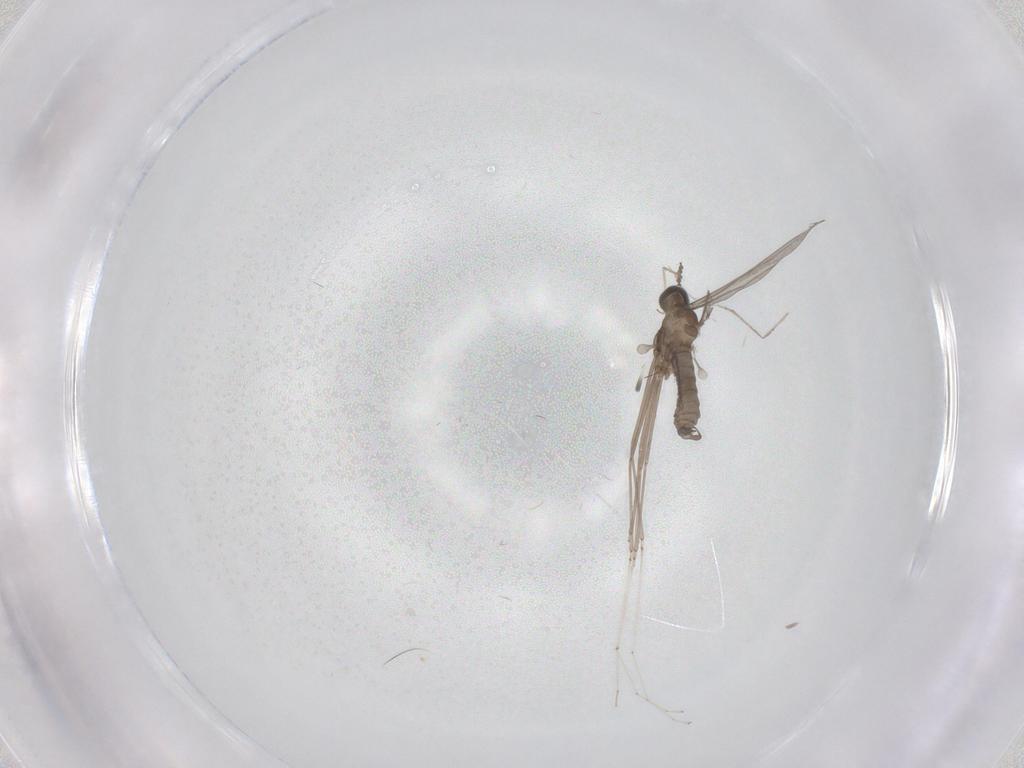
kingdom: Animalia
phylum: Arthropoda
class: Insecta
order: Diptera
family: Chironomidae
